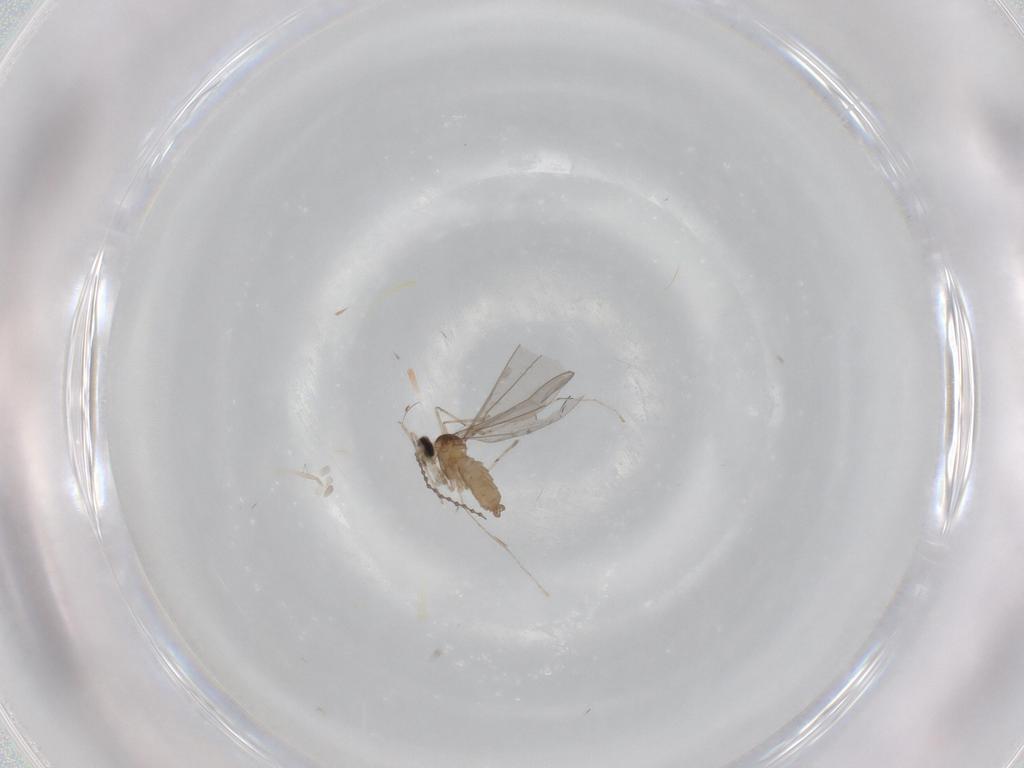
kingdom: Animalia
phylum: Arthropoda
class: Insecta
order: Diptera
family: Cecidomyiidae
